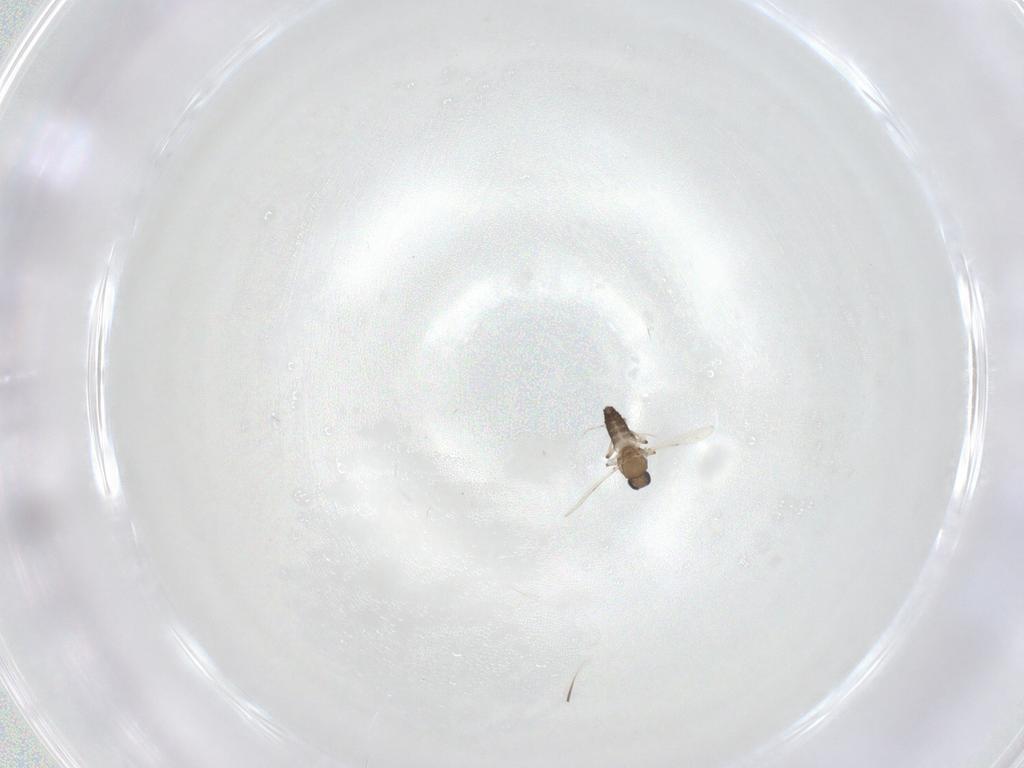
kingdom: Animalia
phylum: Arthropoda
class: Insecta
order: Diptera
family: Ceratopogonidae
